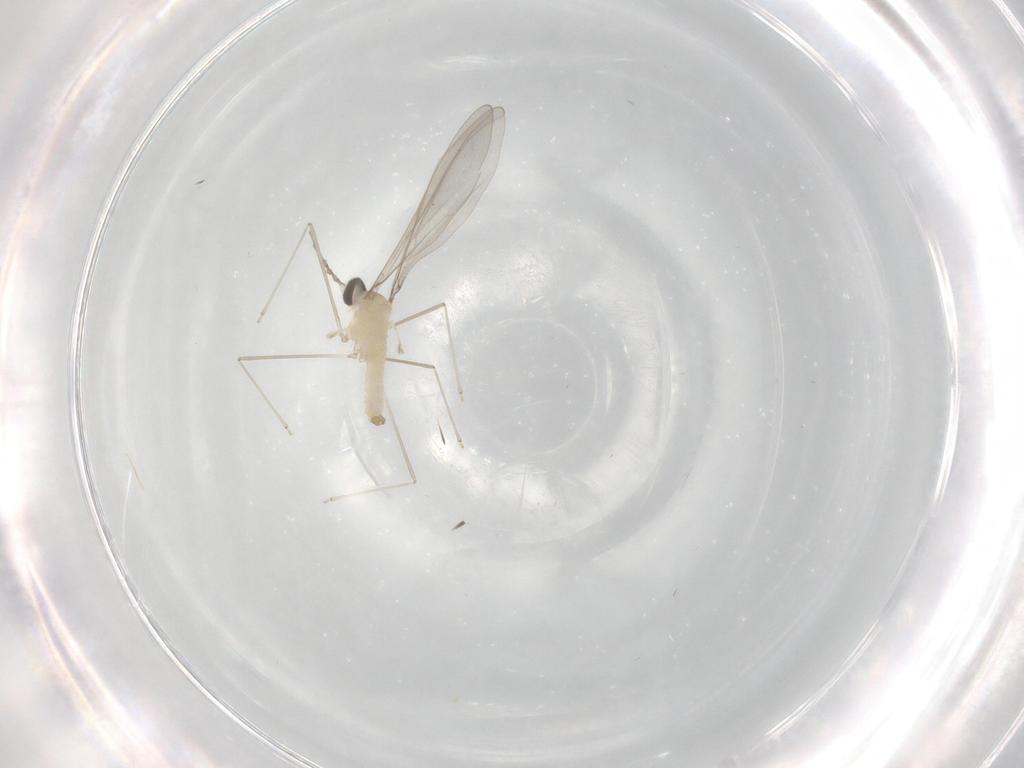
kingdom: Animalia
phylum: Arthropoda
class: Insecta
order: Diptera
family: Cecidomyiidae
